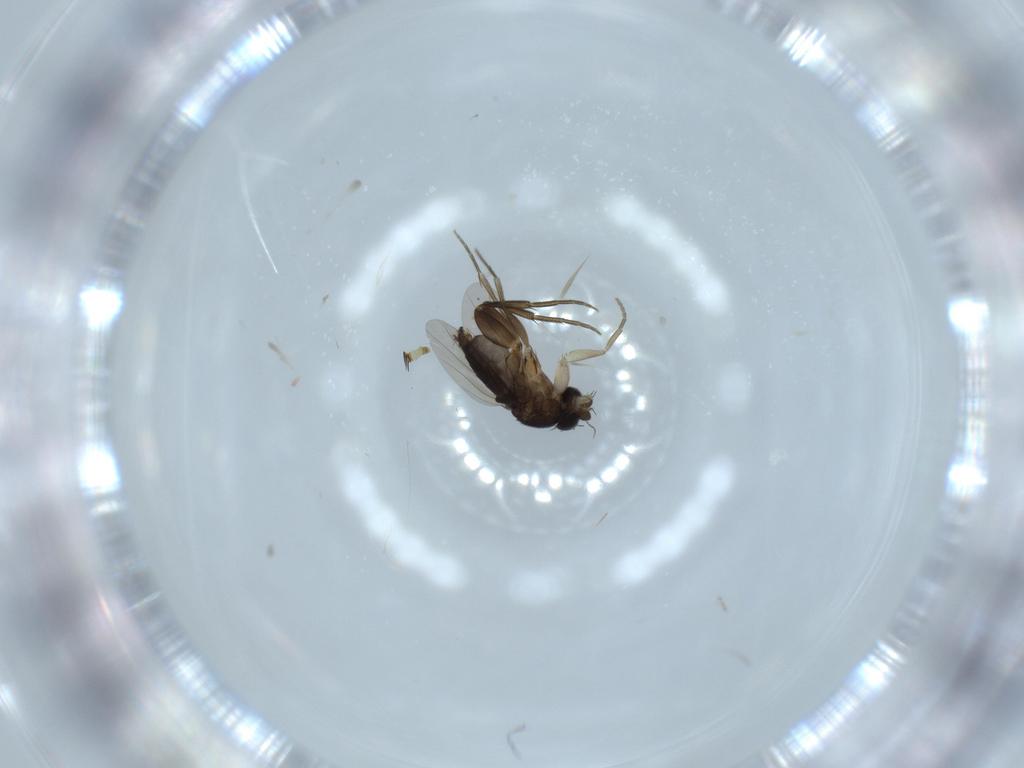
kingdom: Animalia
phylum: Arthropoda
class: Insecta
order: Diptera
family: Phoridae
